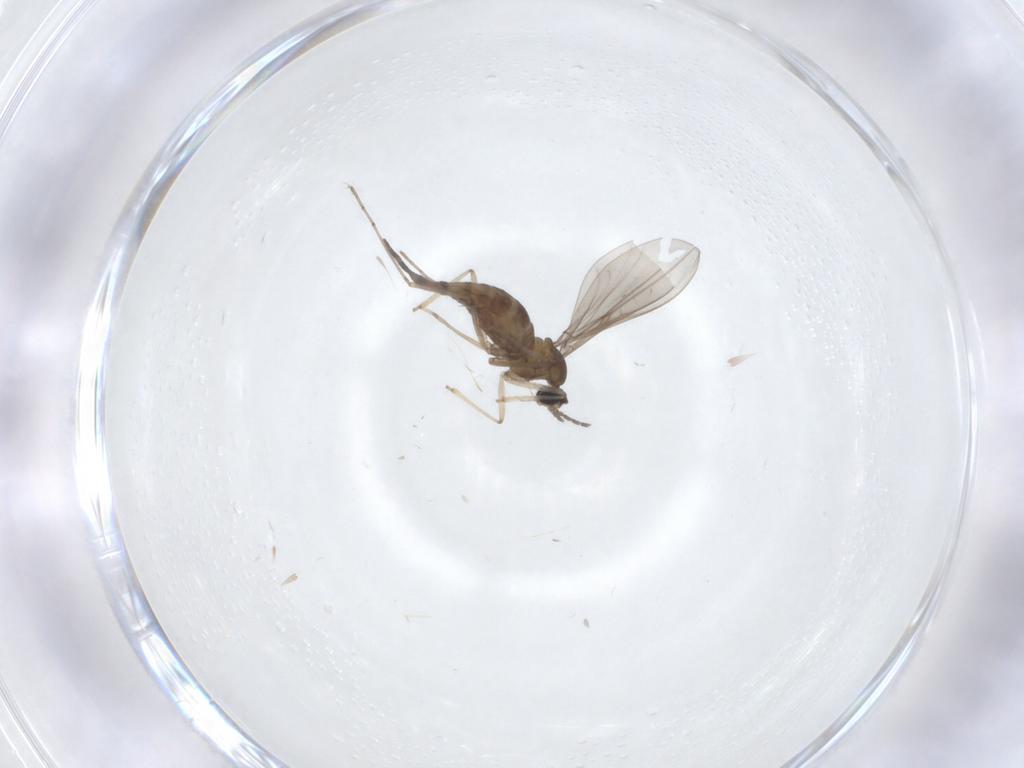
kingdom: Animalia
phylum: Arthropoda
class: Insecta
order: Diptera
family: Cecidomyiidae
